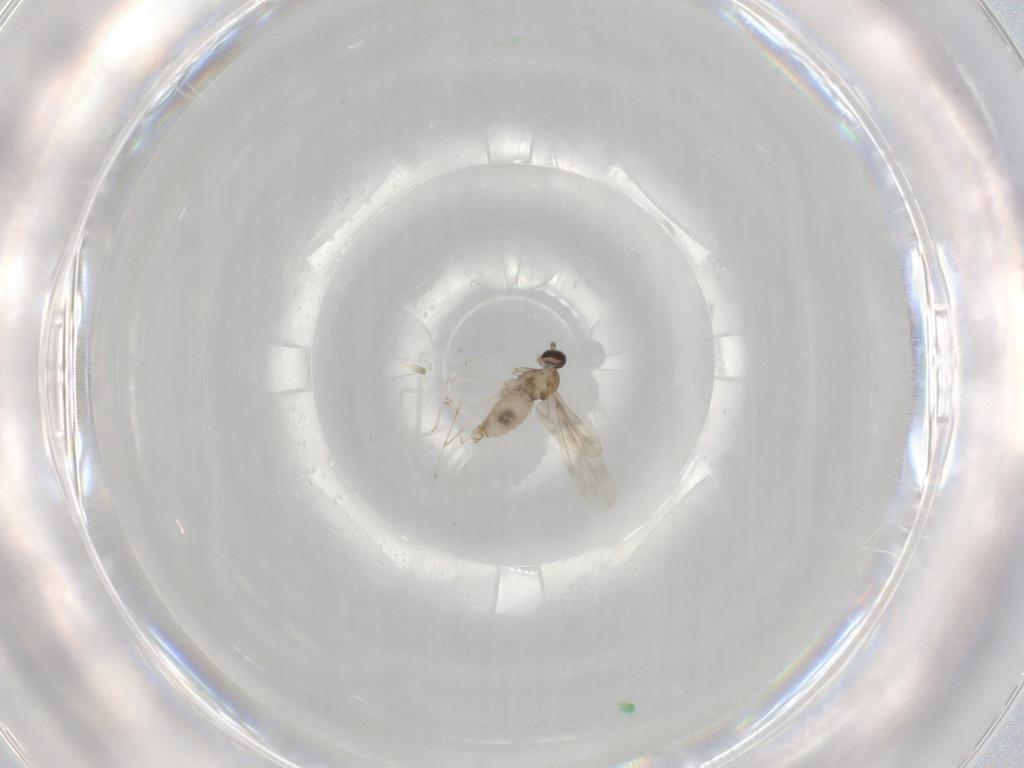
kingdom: Animalia
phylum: Arthropoda
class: Insecta
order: Diptera
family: Cecidomyiidae
